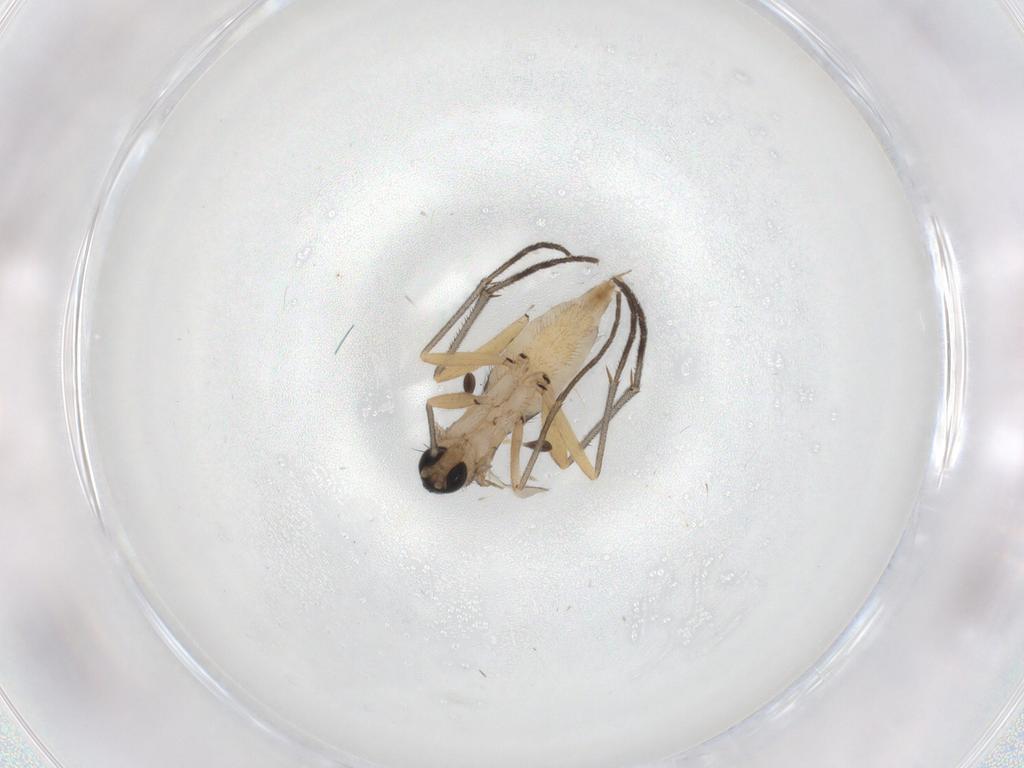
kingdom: Animalia
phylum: Arthropoda
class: Insecta
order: Diptera
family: Sciaridae
